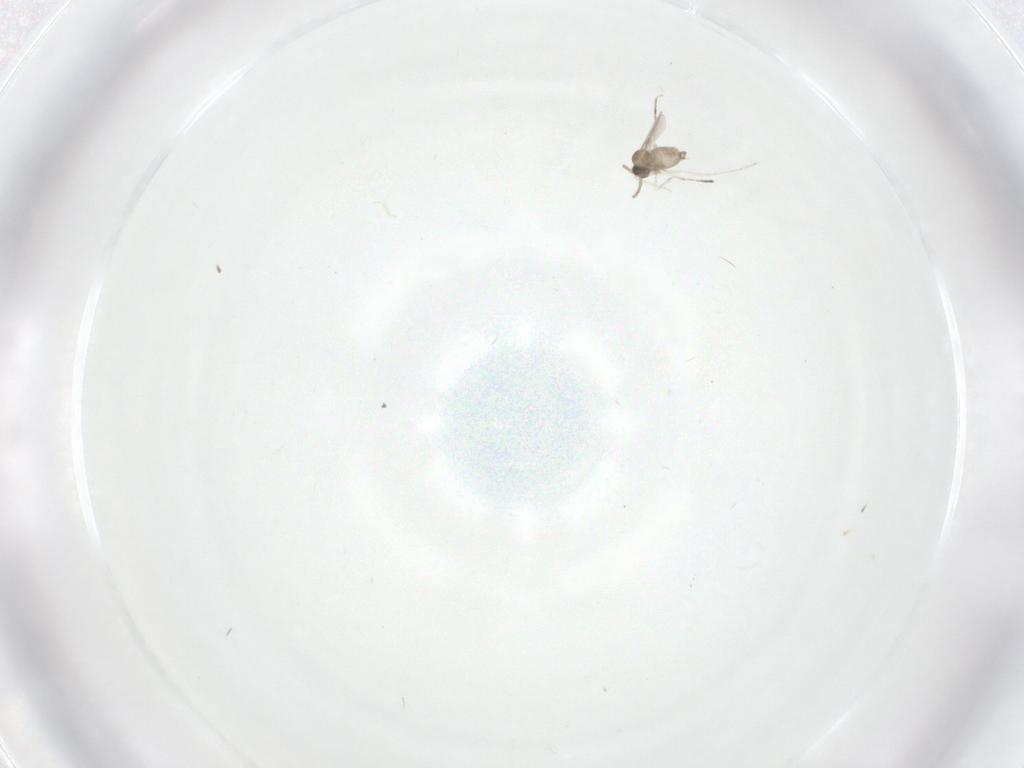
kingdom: Animalia
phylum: Arthropoda
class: Insecta
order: Diptera
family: Cecidomyiidae
